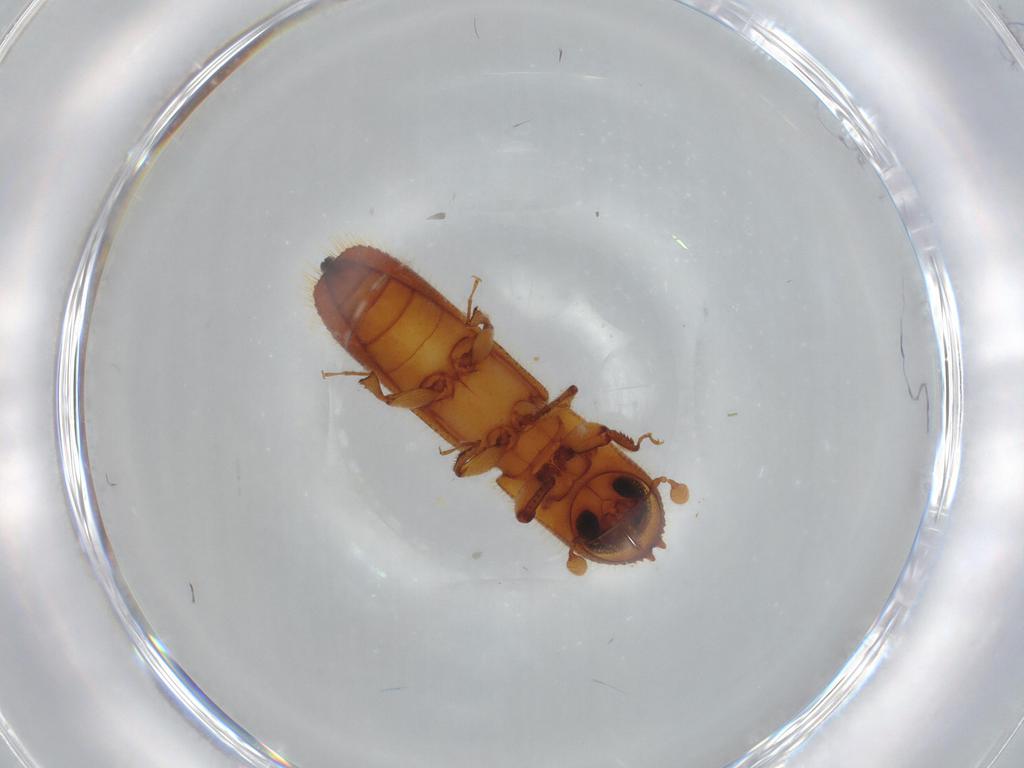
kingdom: Animalia
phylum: Arthropoda
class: Insecta
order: Coleoptera
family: Curculionidae
